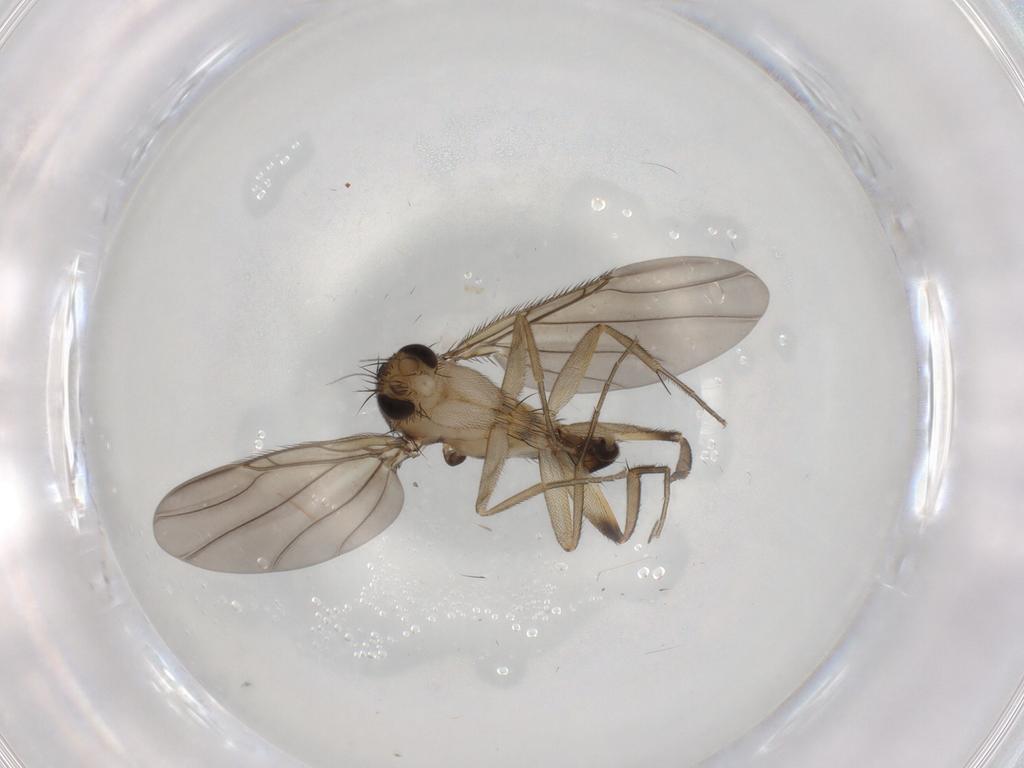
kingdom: Animalia
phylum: Arthropoda
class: Insecta
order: Diptera
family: Phoridae
